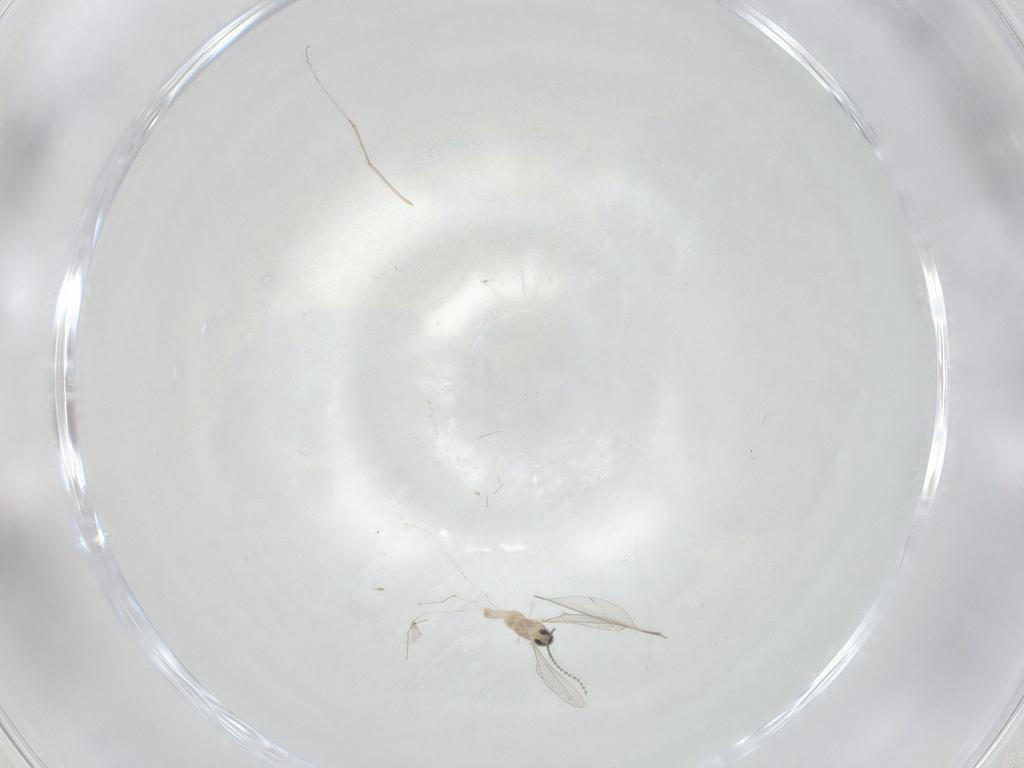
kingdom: Animalia
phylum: Arthropoda
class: Insecta
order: Diptera
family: Cecidomyiidae
